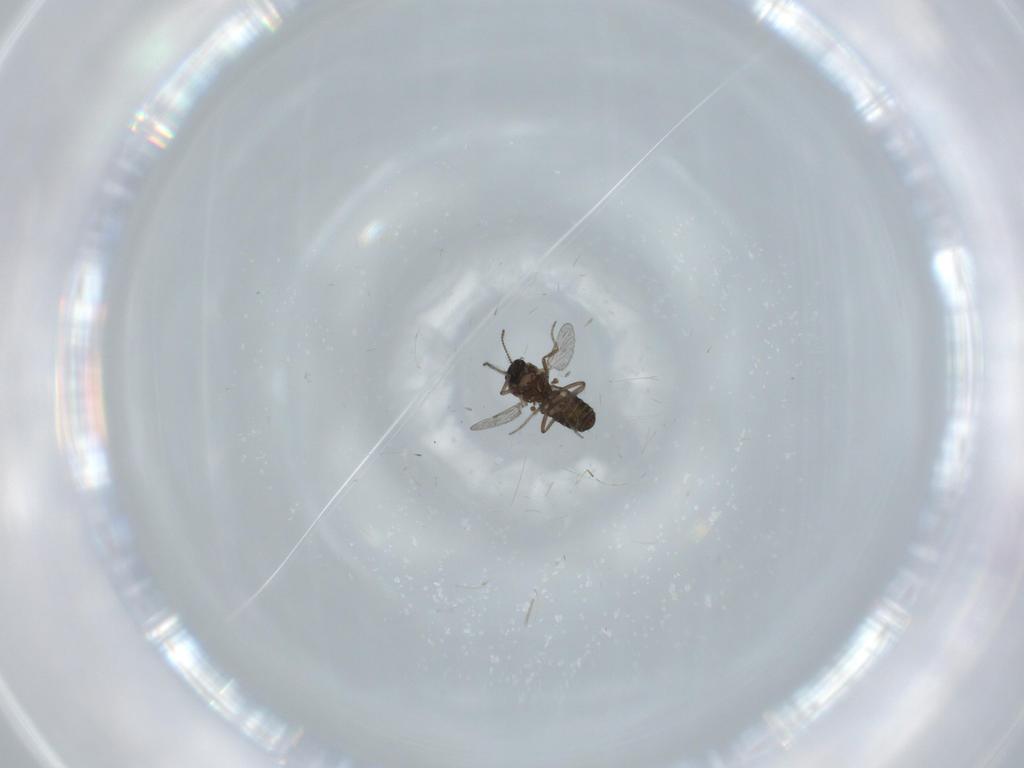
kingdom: Animalia
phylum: Arthropoda
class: Insecta
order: Diptera
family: Ceratopogonidae
